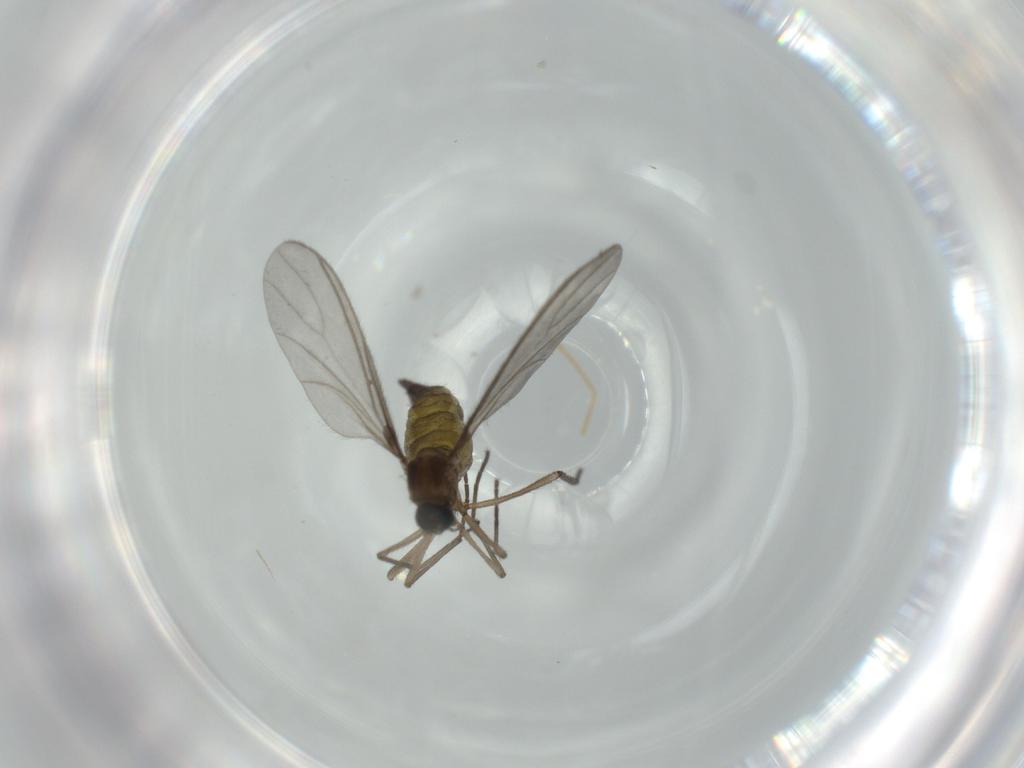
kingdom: Animalia
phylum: Arthropoda
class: Insecta
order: Diptera
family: Sciaridae
